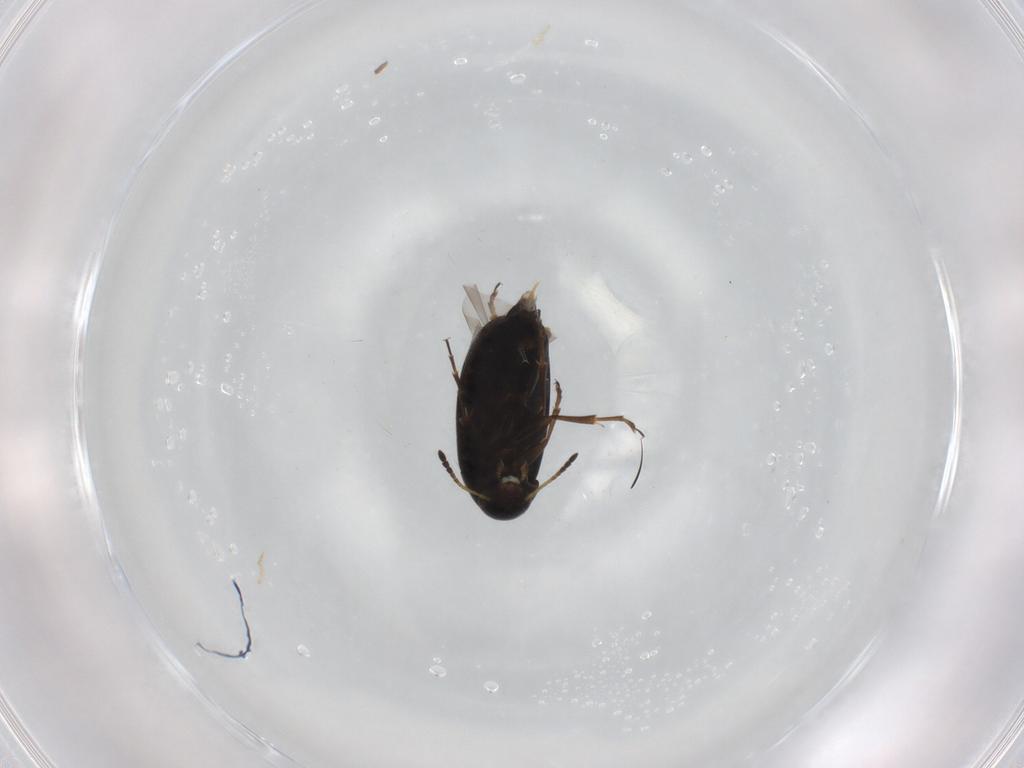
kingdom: Animalia
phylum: Arthropoda
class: Insecta
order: Coleoptera
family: Scraptiidae
